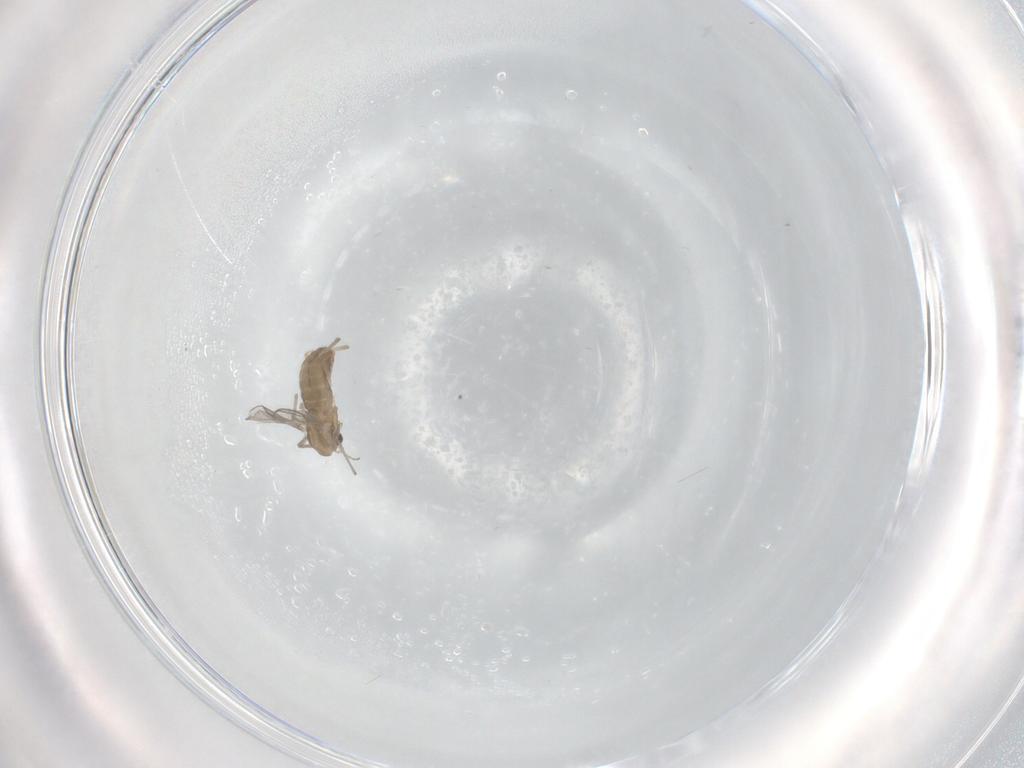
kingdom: Animalia
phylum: Arthropoda
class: Insecta
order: Diptera
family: Chironomidae
